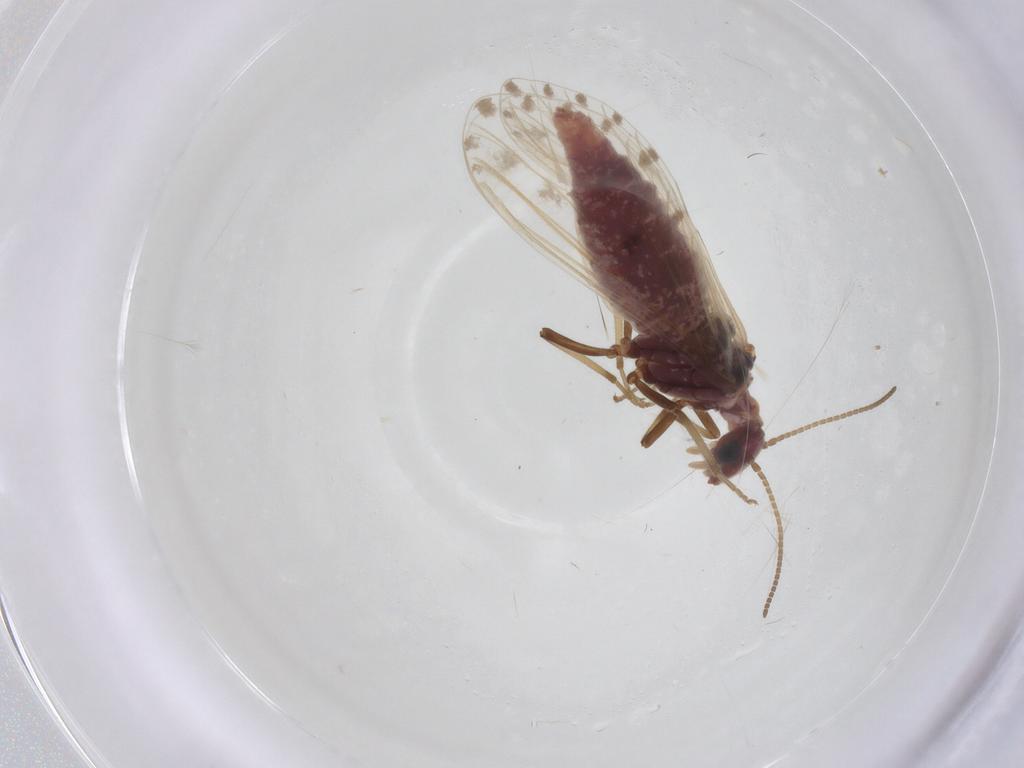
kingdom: Animalia
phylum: Arthropoda
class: Insecta
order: Neuroptera
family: Coniopterygidae
